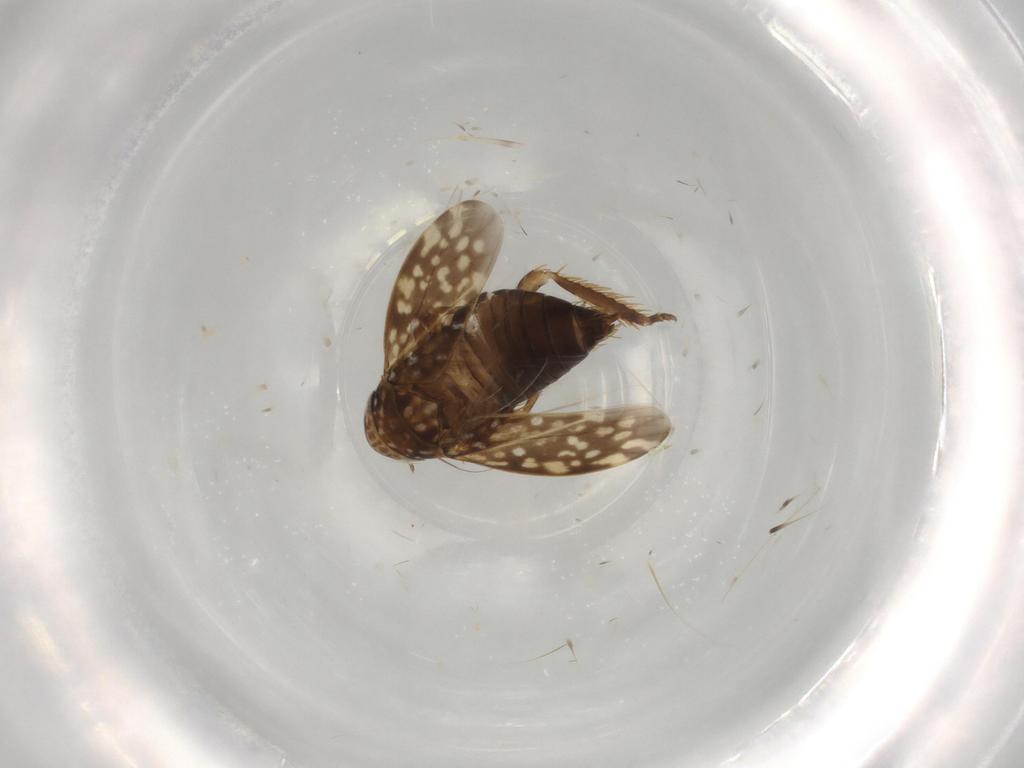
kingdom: Animalia
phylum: Arthropoda
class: Insecta
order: Hemiptera
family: Cicadellidae
